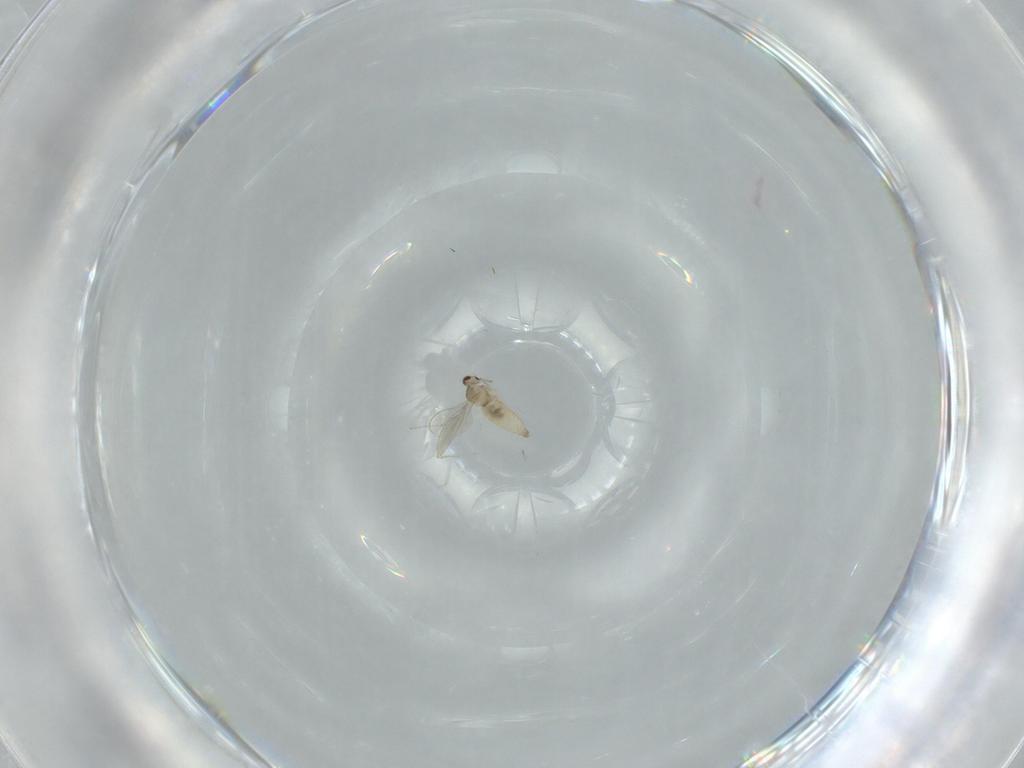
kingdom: Animalia
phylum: Arthropoda
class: Insecta
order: Diptera
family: Cecidomyiidae
